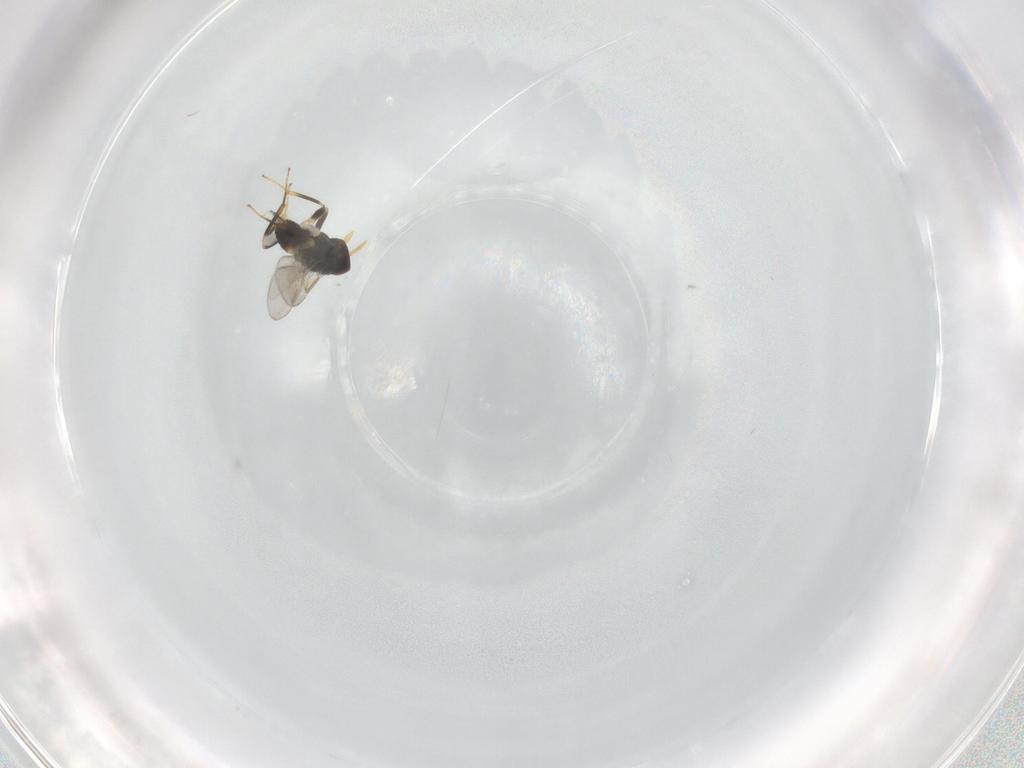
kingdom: Animalia
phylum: Arthropoda
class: Insecta
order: Hymenoptera
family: Aphelinidae
